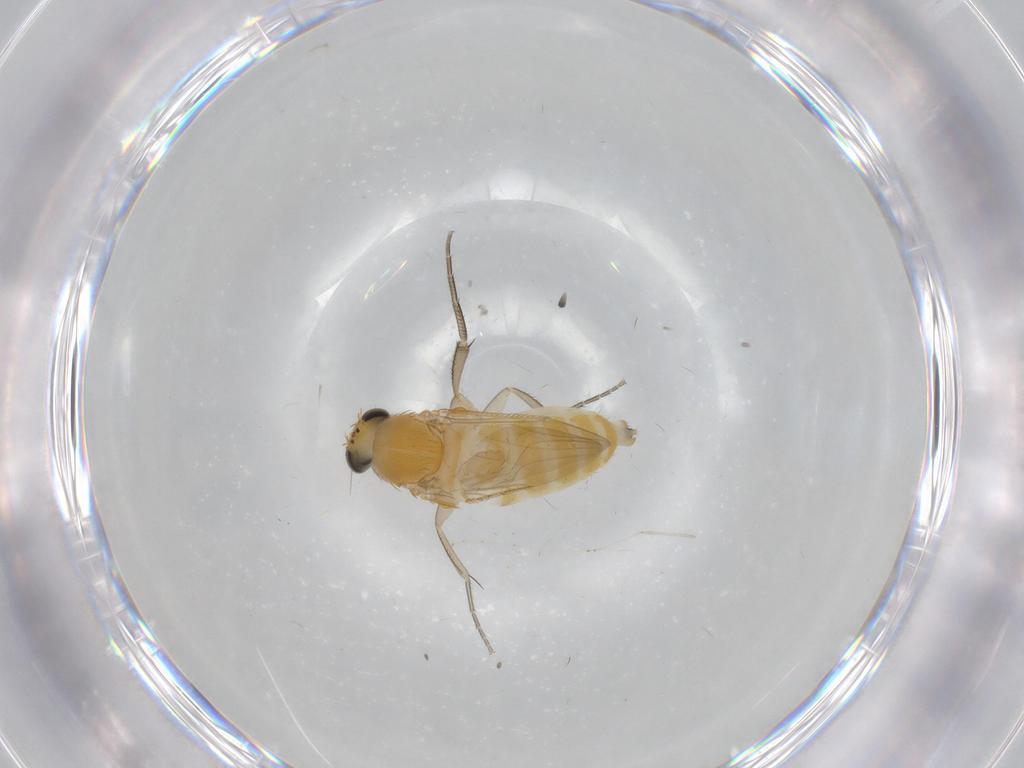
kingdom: Animalia
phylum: Arthropoda
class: Insecta
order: Diptera
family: Phoridae
